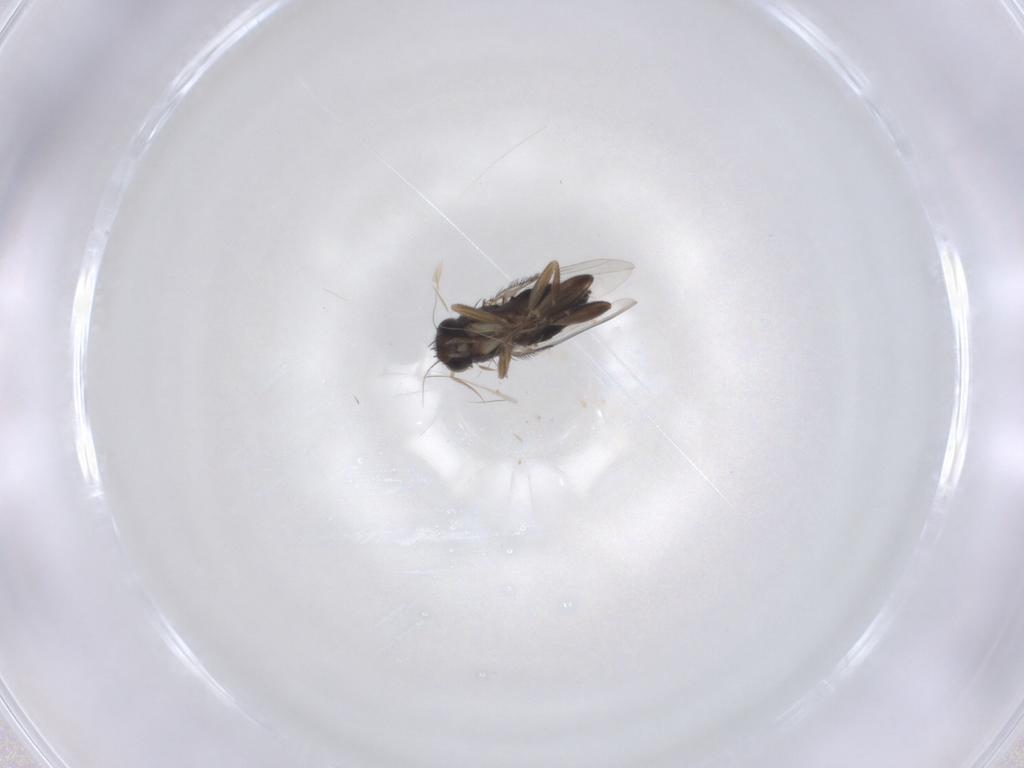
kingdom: Animalia
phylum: Arthropoda
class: Insecta
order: Diptera
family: Phoridae
